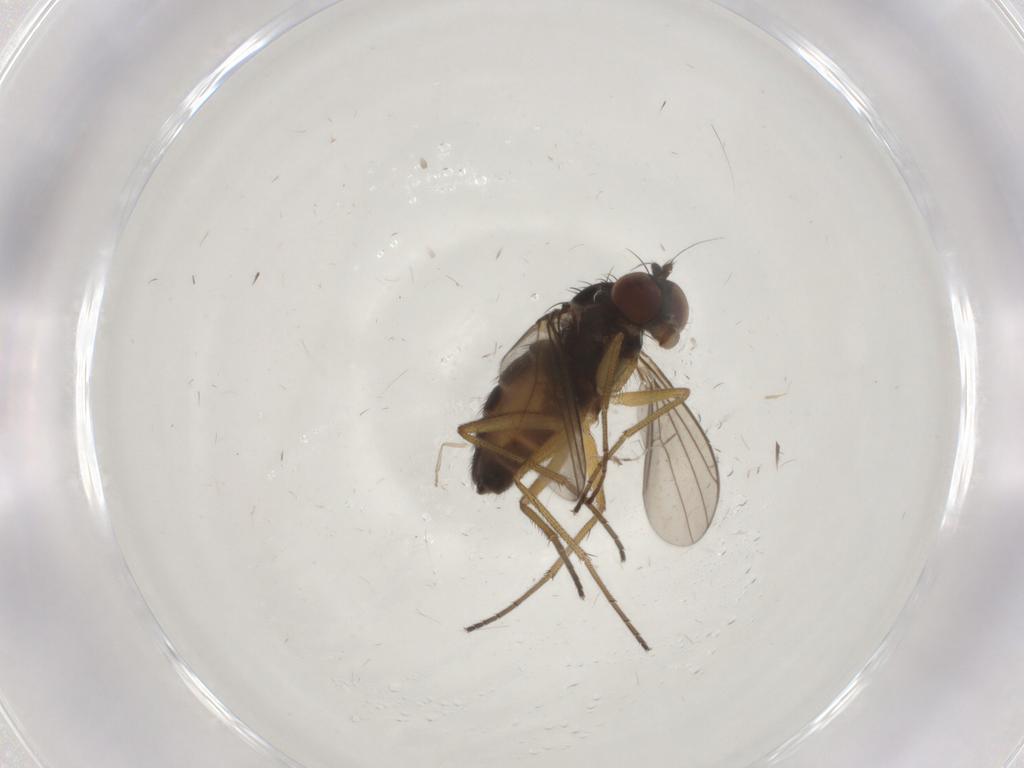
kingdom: Animalia
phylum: Arthropoda
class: Insecta
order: Diptera
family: Dolichopodidae
